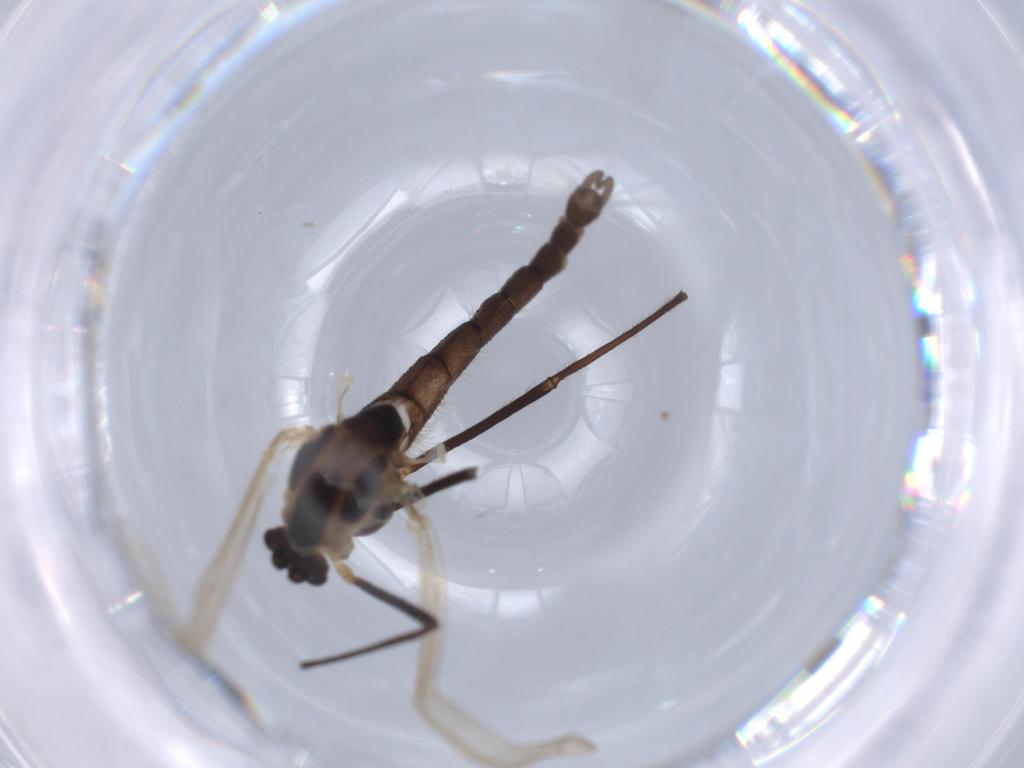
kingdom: Animalia
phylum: Arthropoda
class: Insecta
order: Diptera
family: Chironomidae
